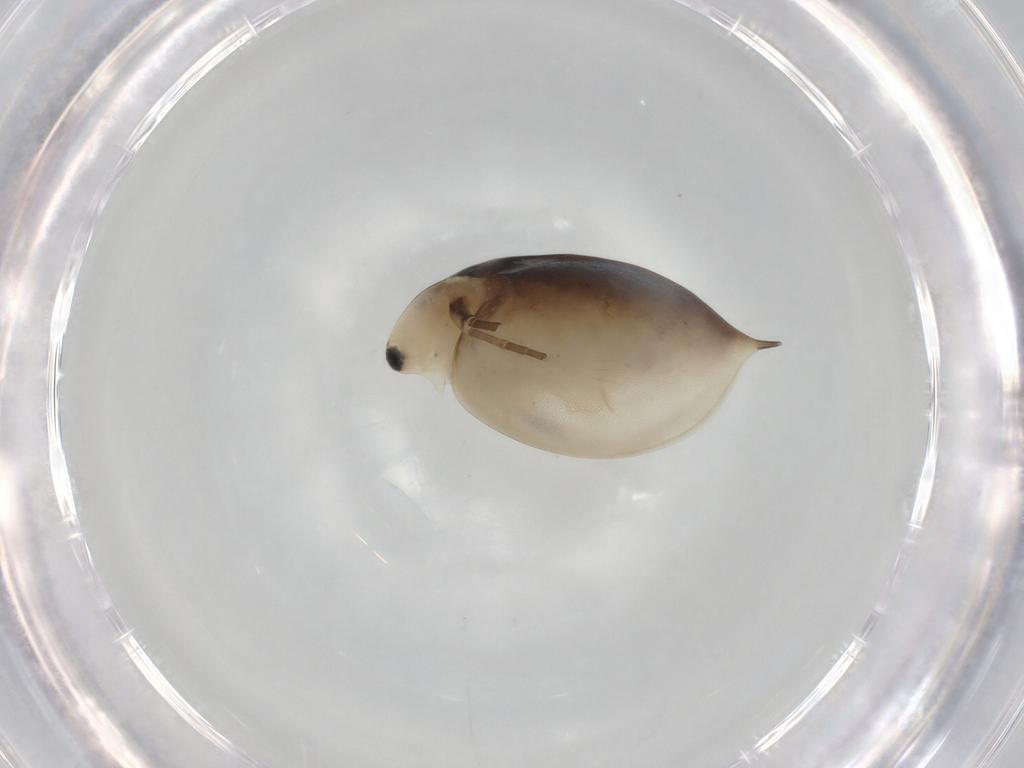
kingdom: Animalia
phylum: Arthropoda
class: Branchiopoda
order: Diplostraca
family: Daphniidae
